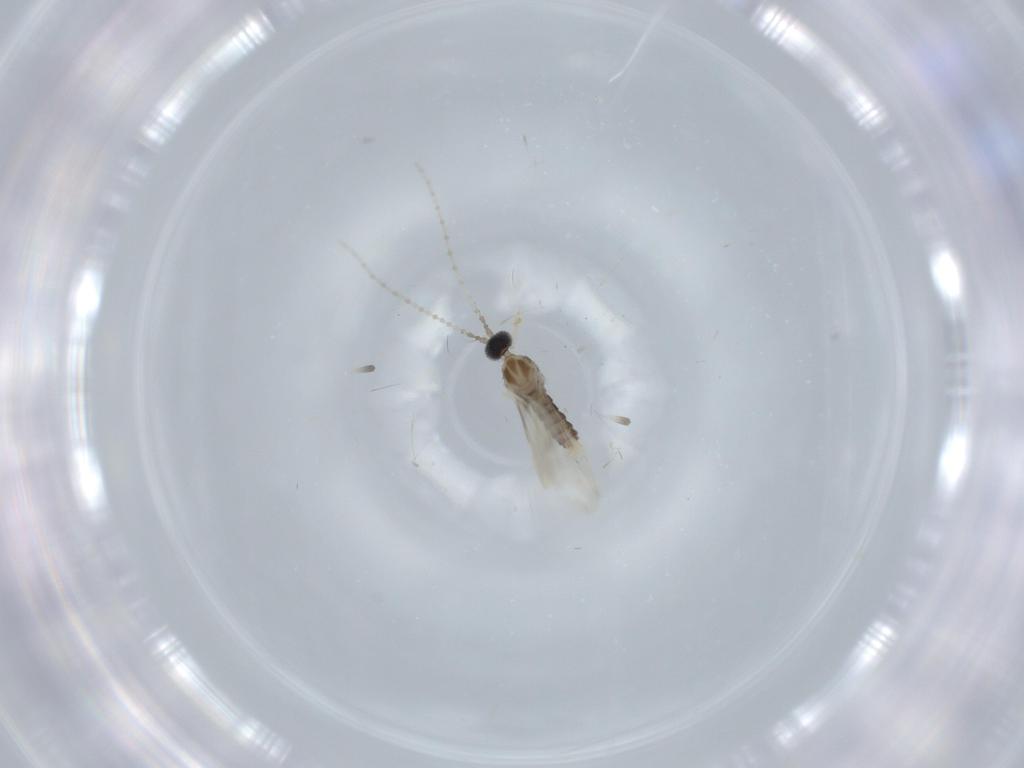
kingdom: Animalia
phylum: Arthropoda
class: Insecta
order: Diptera
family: Cecidomyiidae
